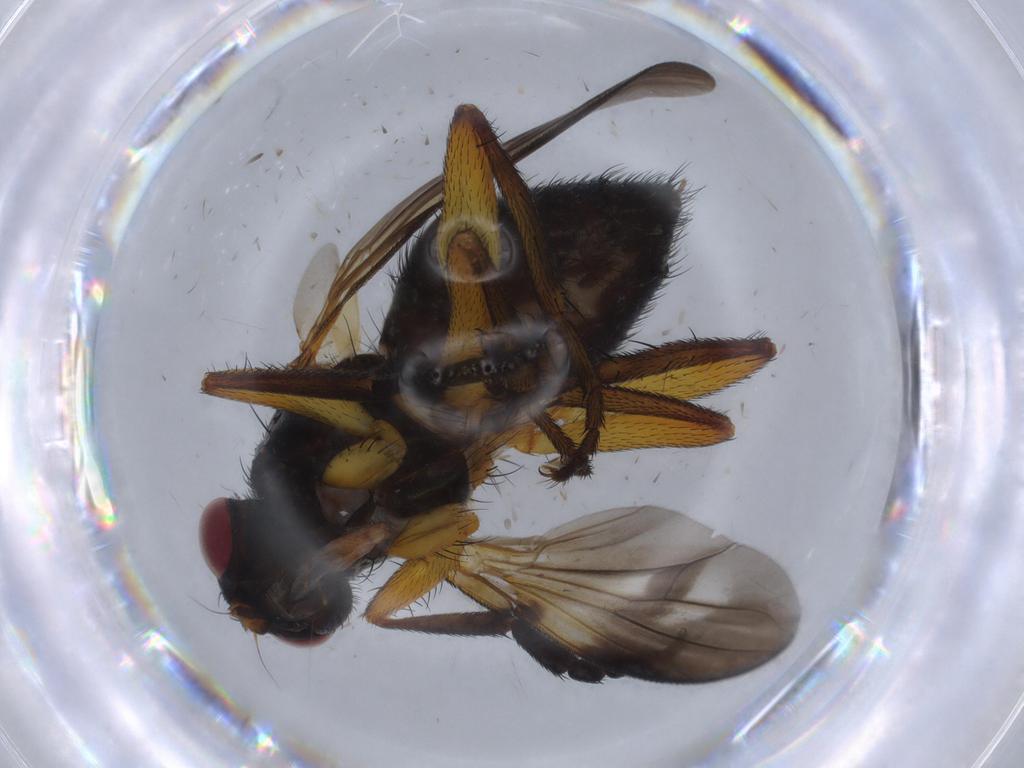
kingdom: Animalia
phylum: Arthropoda
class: Insecta
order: Diptera
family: Calliphoridae
